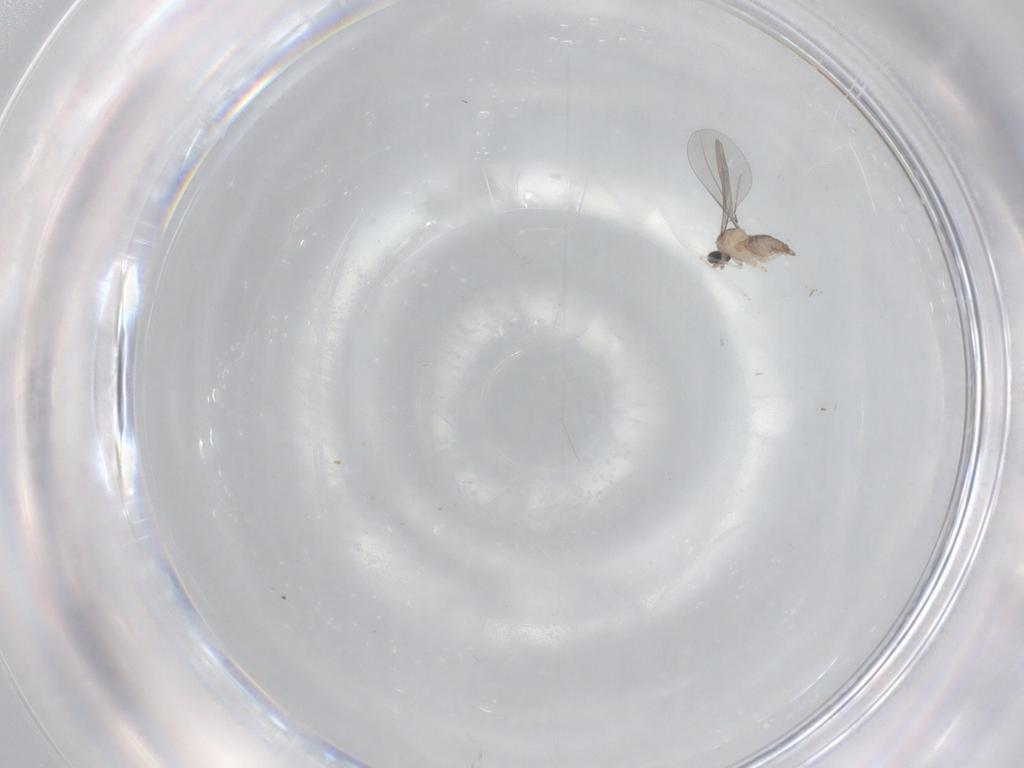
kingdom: Animalia
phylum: Arthropoda
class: Insecta
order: Diptera
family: Cecidomyiidae
